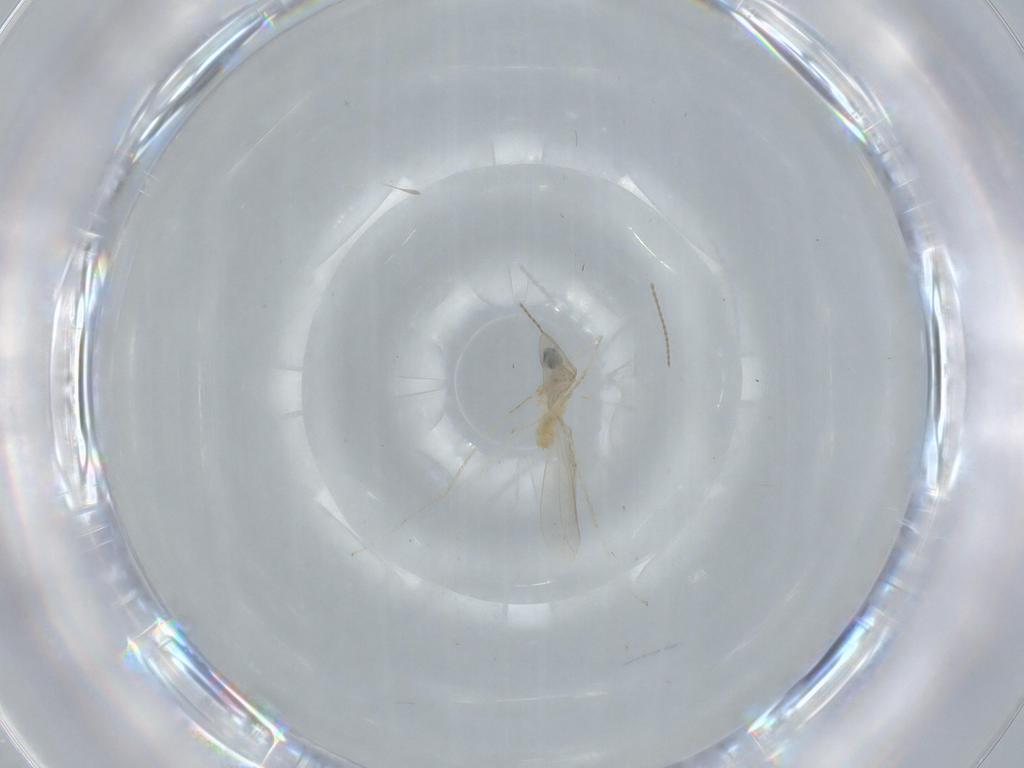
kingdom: Animalia
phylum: Arthropoda
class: Insecta
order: Diptera
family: Cecidomyiidae
